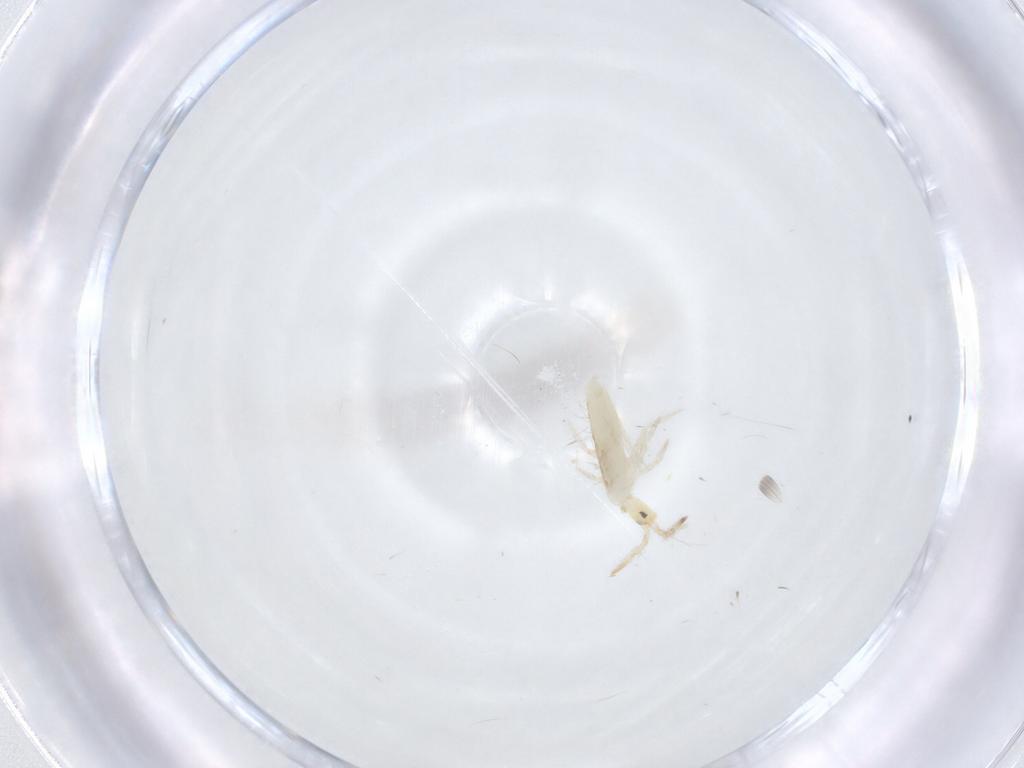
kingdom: Animalia
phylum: Arthropoda
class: Collembola
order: Entomobryomorpha
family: Entomobryidae
